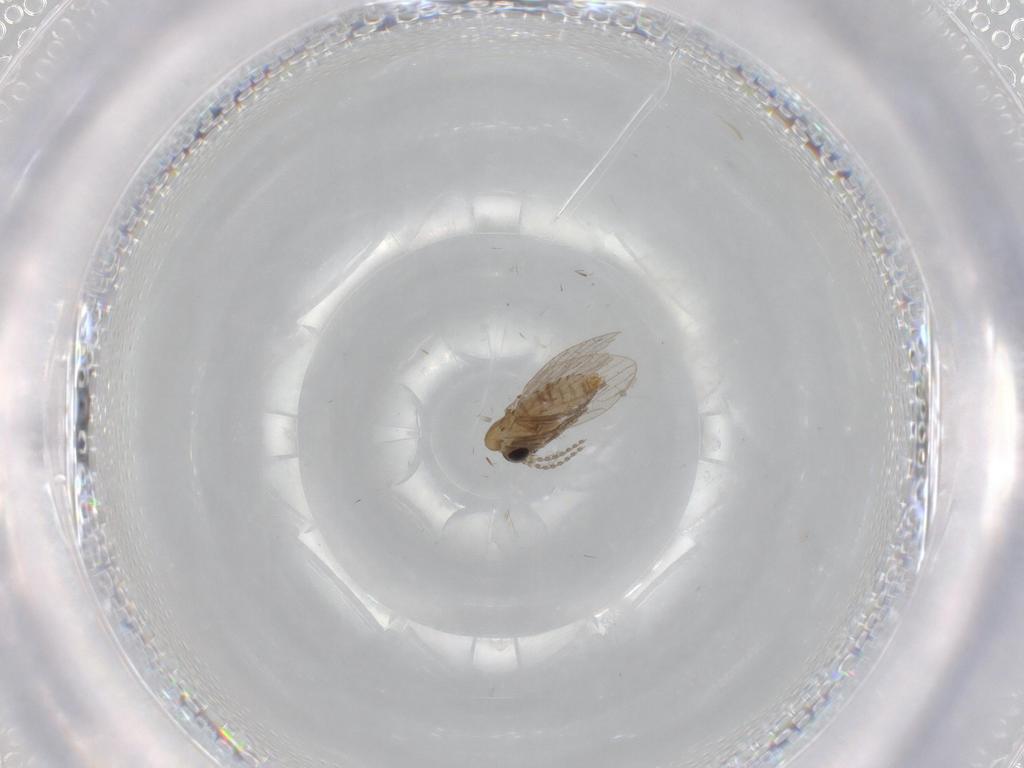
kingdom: Animalia
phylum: Arthropoda
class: Insecta
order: Diptera
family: Psychodidae
